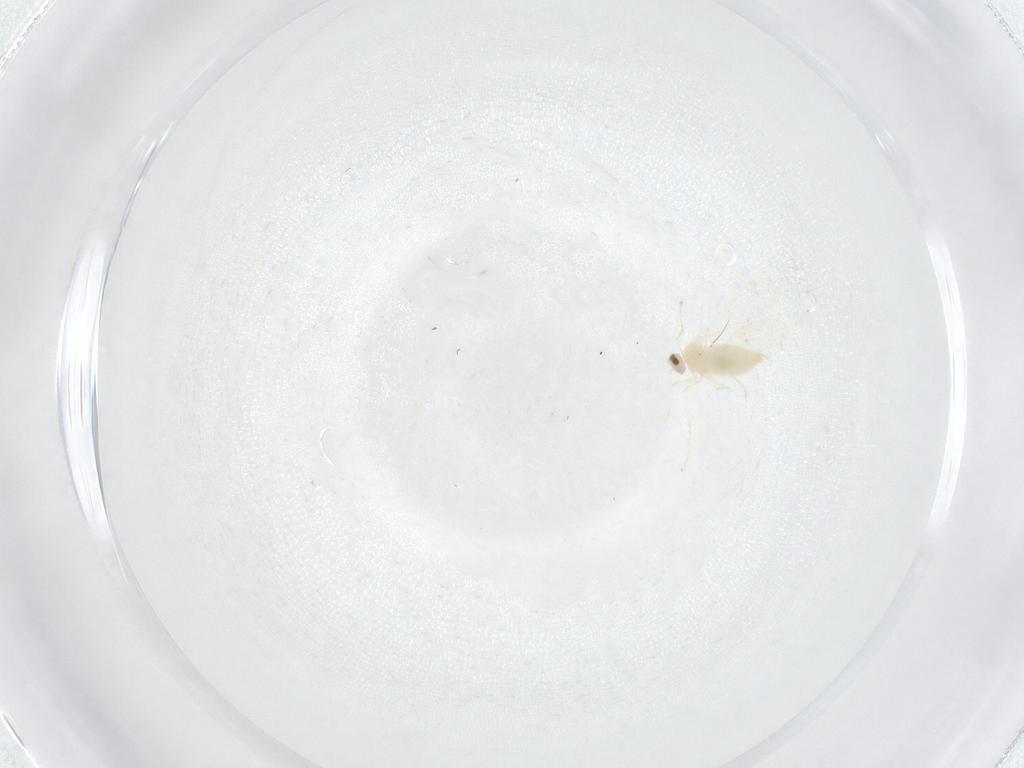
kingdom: Animalia
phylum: Arthropoda
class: Insecta
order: Diptera
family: Cecidomyiidae
